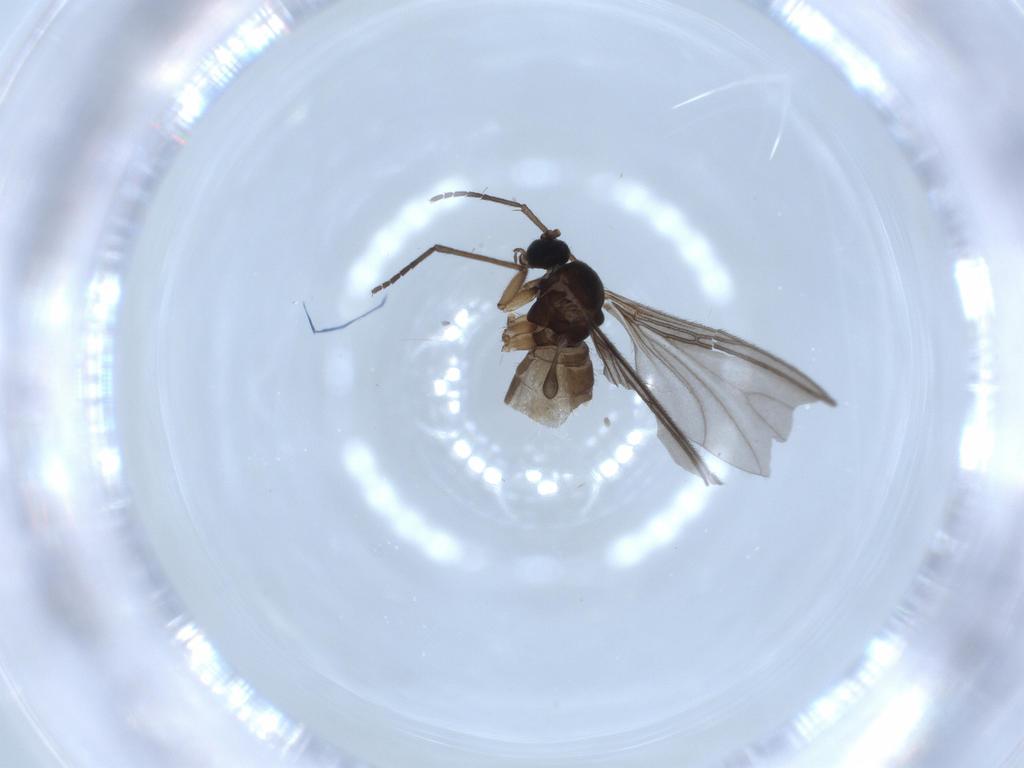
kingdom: Animalia
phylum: Arthropoda
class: Insecta
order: Diptera
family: Sciaridae
